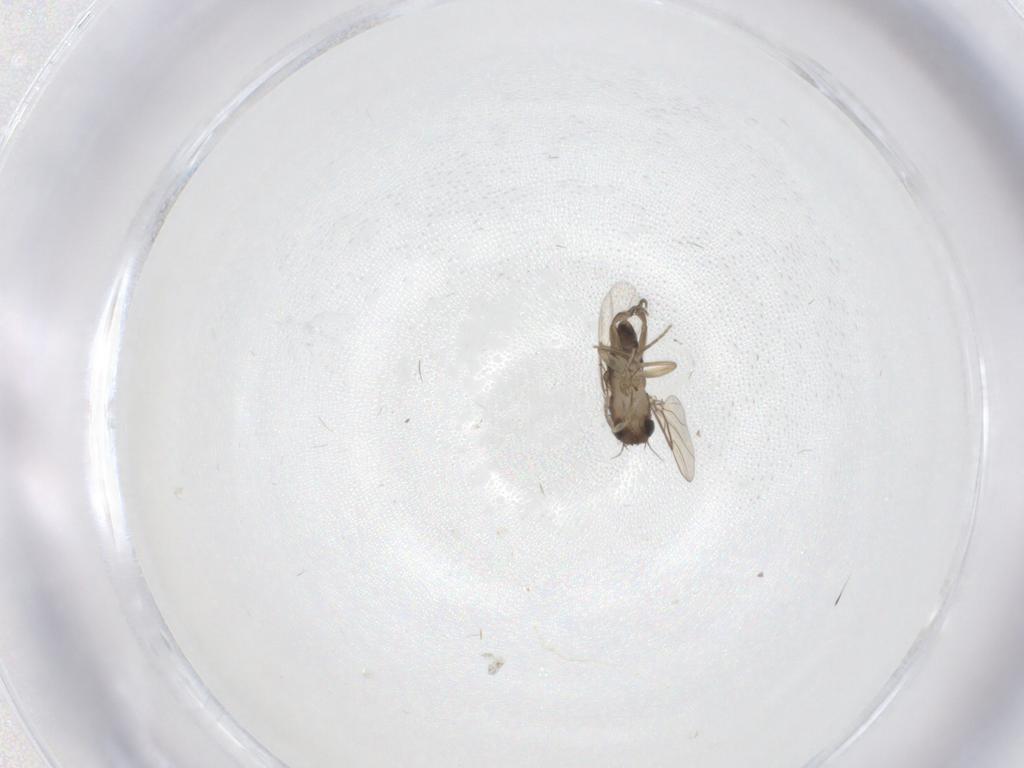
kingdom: Animalia
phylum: Arthropoda
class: Insecta
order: Diptera
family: Phoridae
